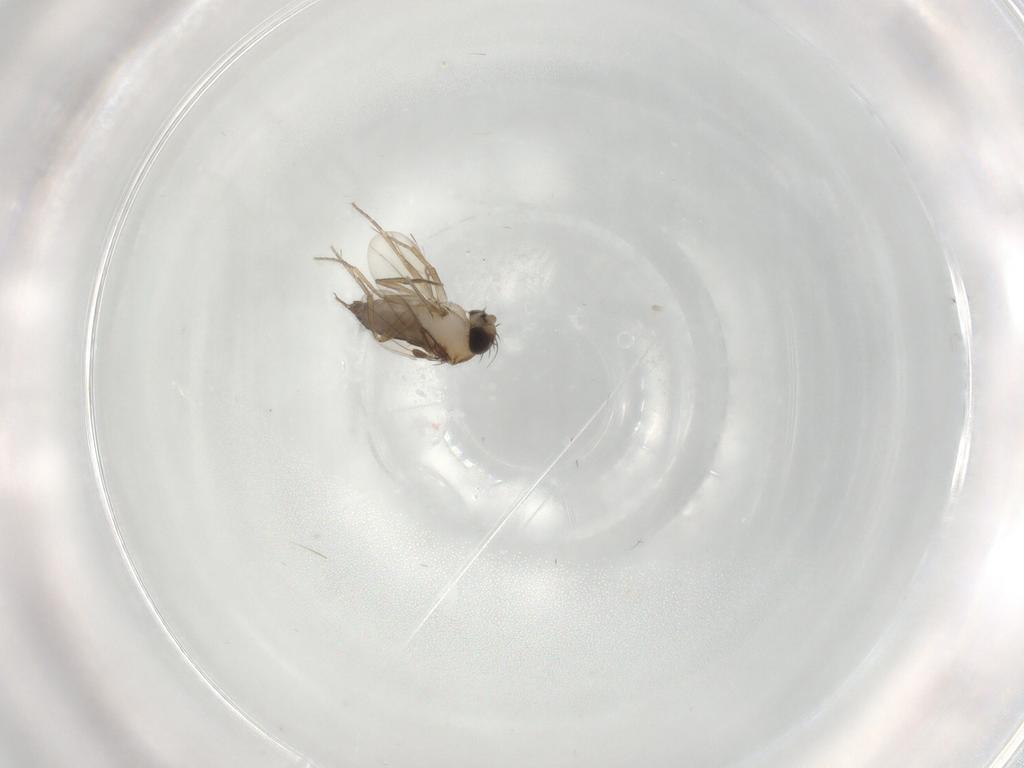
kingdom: Animalia
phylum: Arthropoda
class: Insecta
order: Diptera
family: Phoridae
